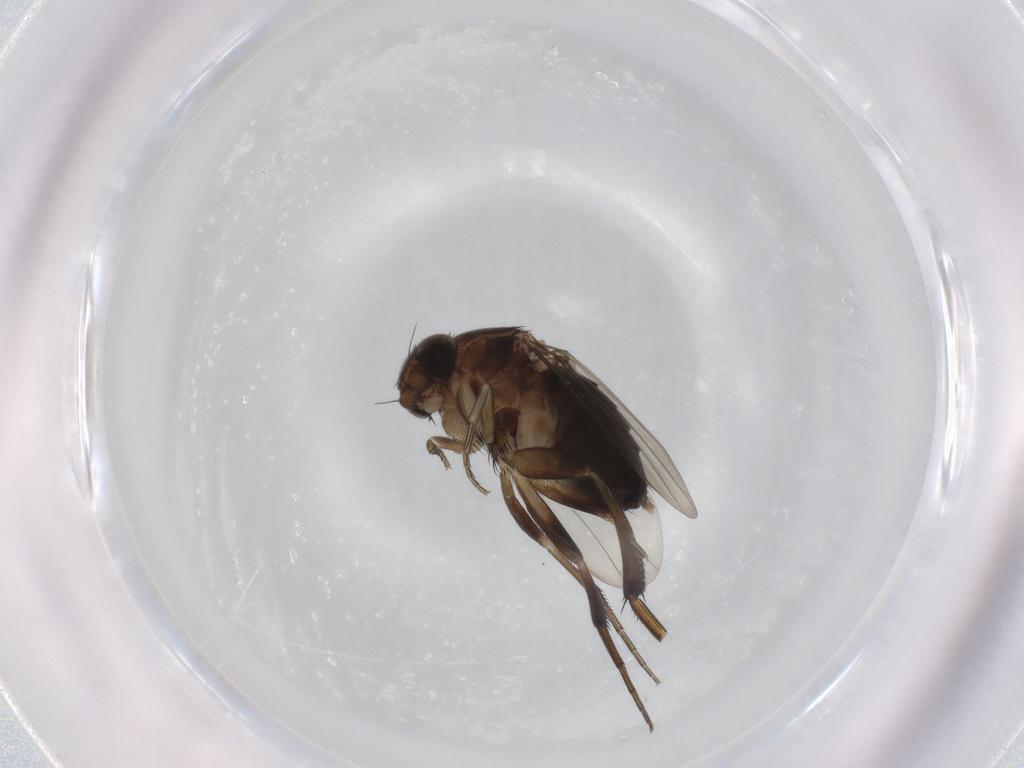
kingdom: Animalia
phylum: Arthropoda
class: Insecta
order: Diptera
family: Phoridae
